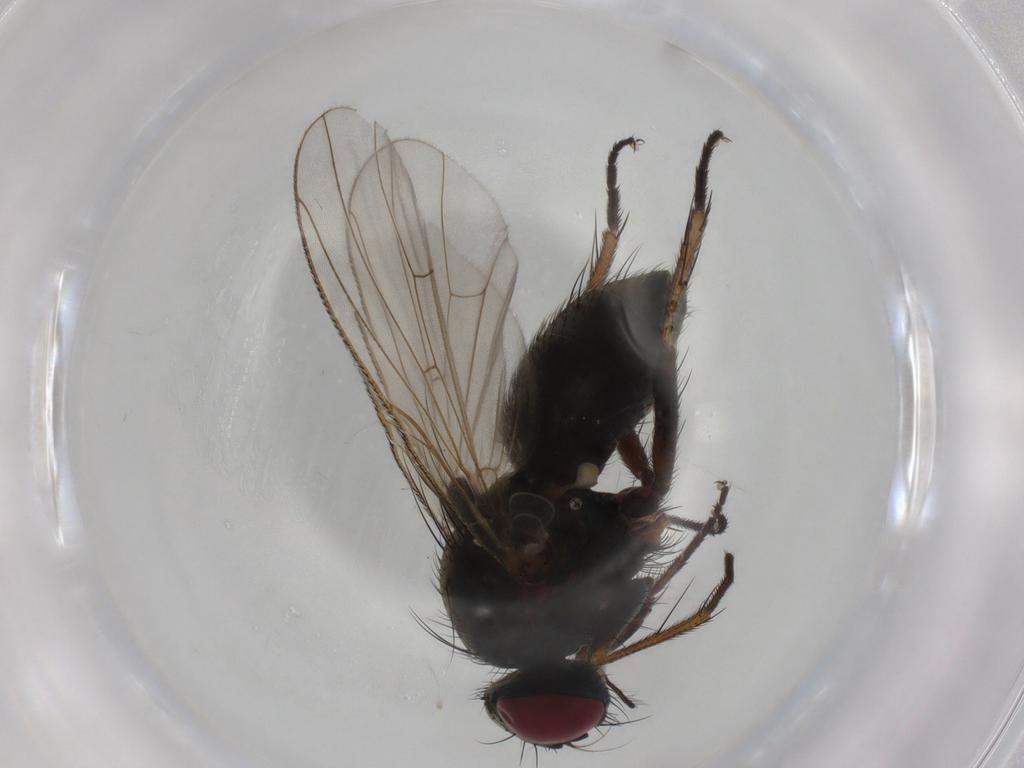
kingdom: Animalia
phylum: Arthropoda
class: Insecta
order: Diptera
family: Muscidae
